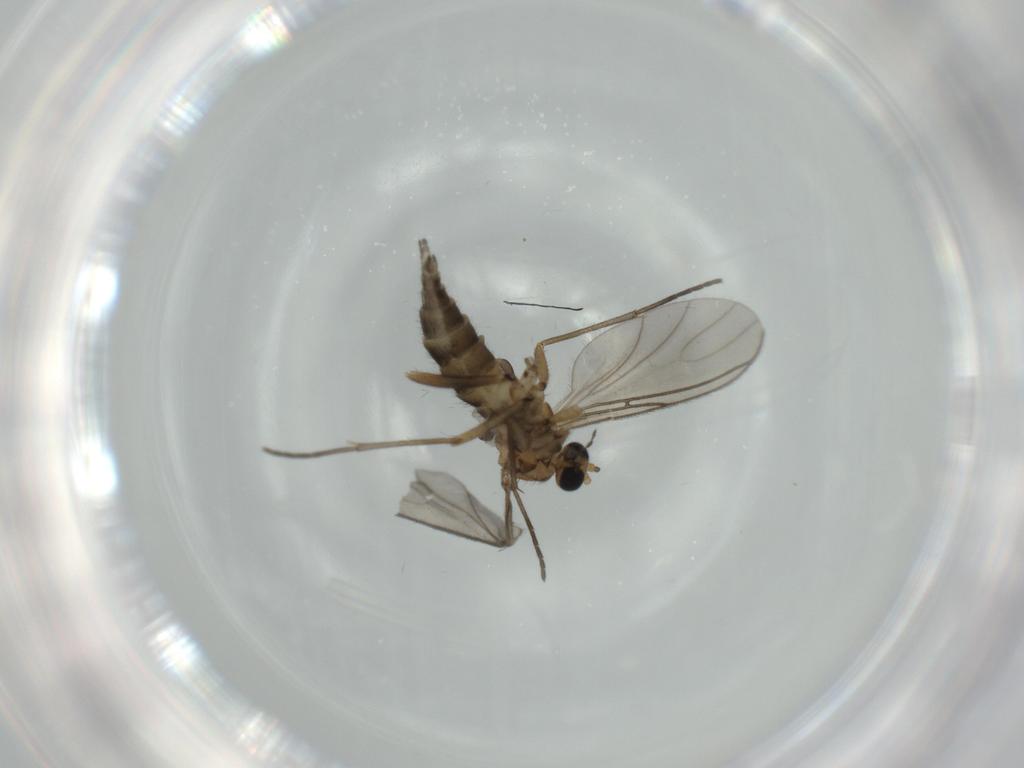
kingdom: Animalia
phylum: Arthropoda
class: Insecta
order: Diptera
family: Sciaridae
